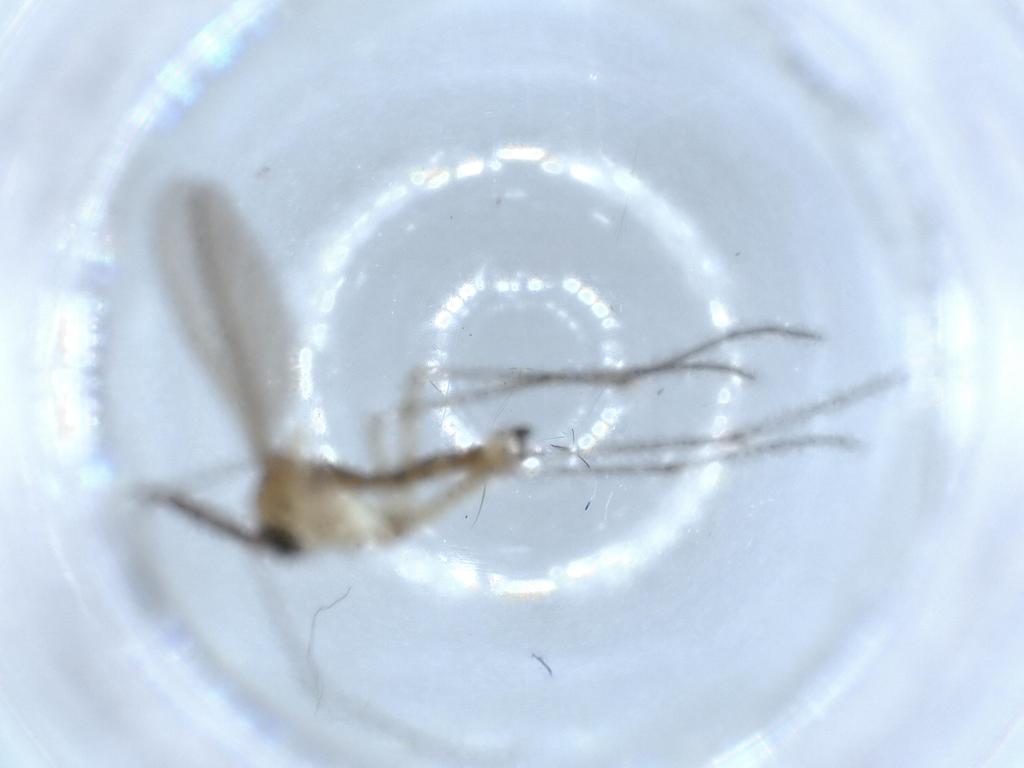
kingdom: Animalia
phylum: Arthropoda
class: Insecta
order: Diptera
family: Sciaridae
